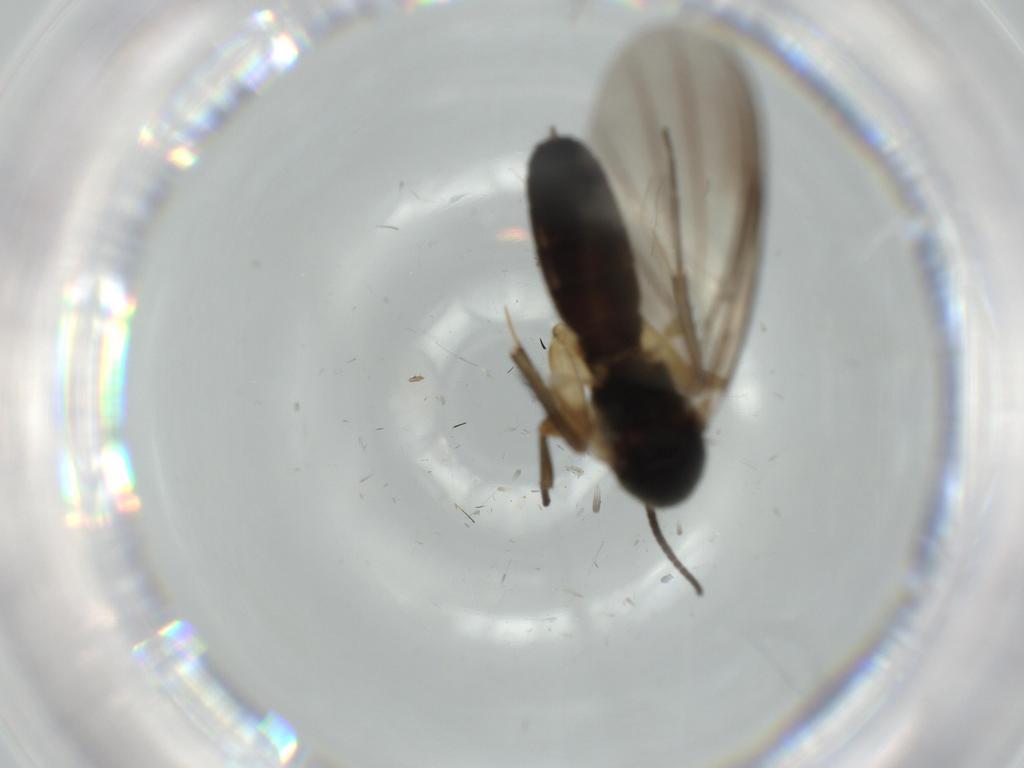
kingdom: Animalia
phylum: Arthropoda
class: Insecta
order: Diptera
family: Mycetophilidae
